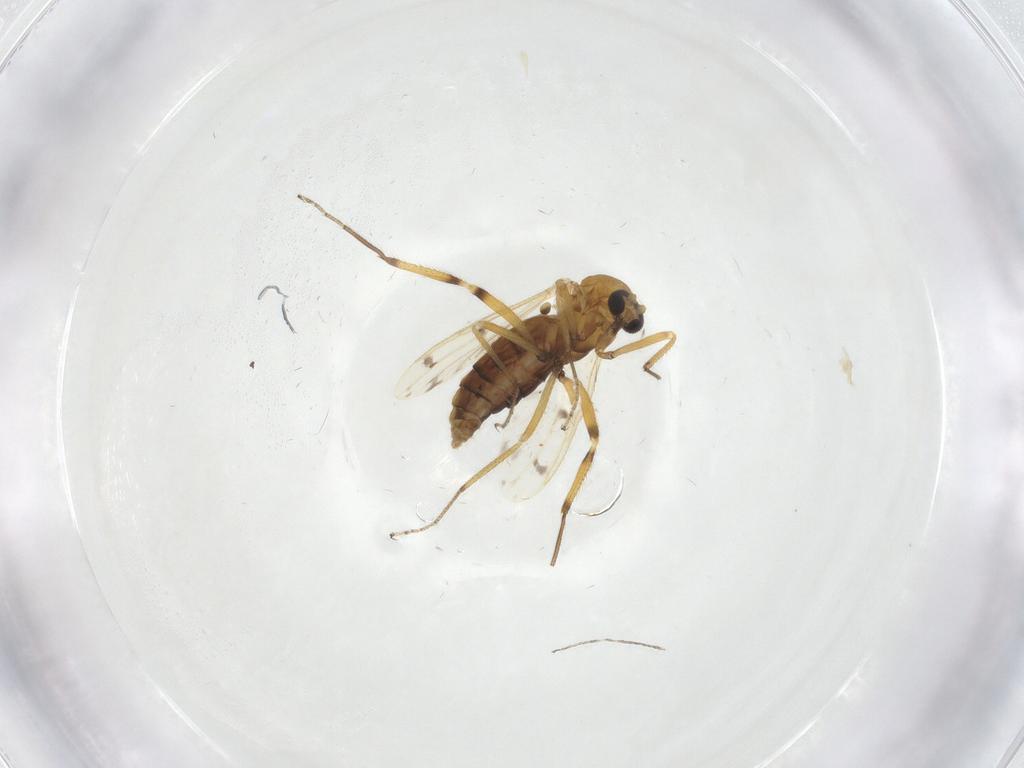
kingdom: Animalia
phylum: Arthropoda
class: Insecta
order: Diptera
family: Ceratopogonidae
